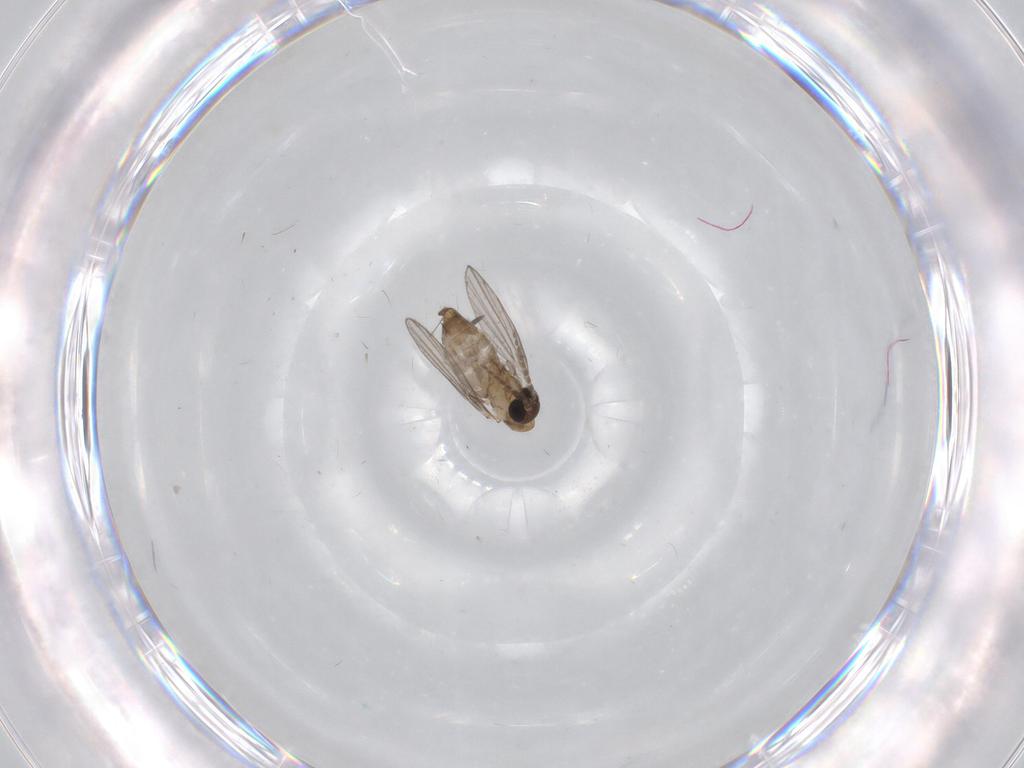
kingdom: Animalia
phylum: Arthropoda
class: Insecta
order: Diptera
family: Psychodidae
